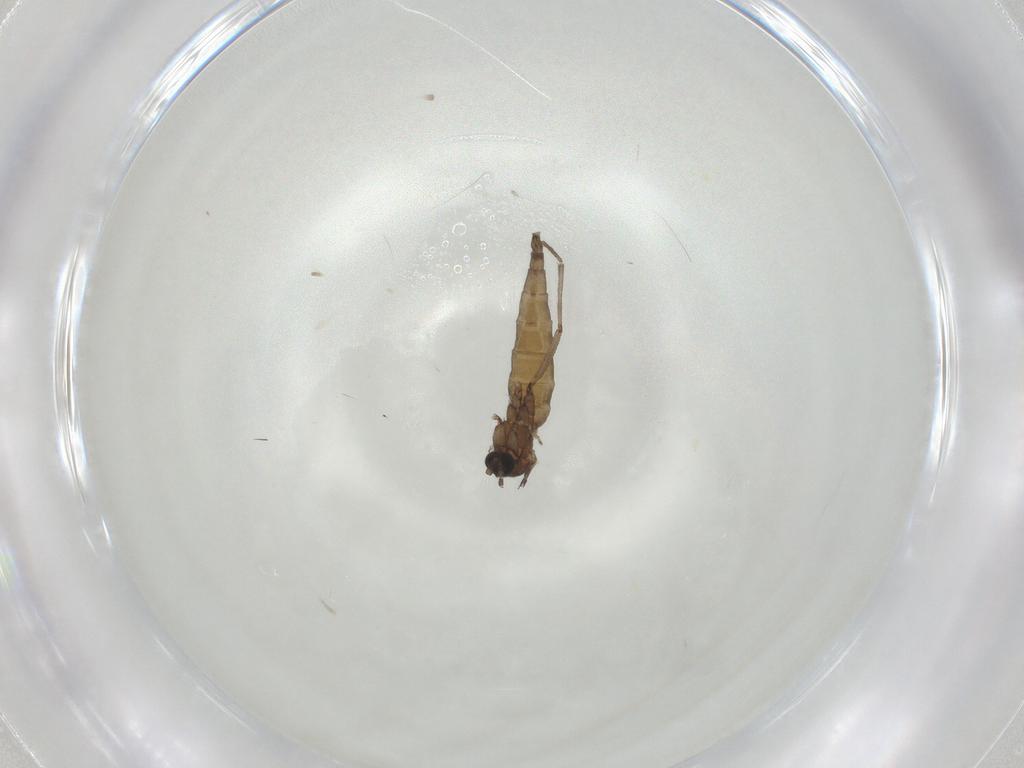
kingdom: Animalia
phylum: Arthropoda
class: Insecta
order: Diptera
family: Sciaridae
